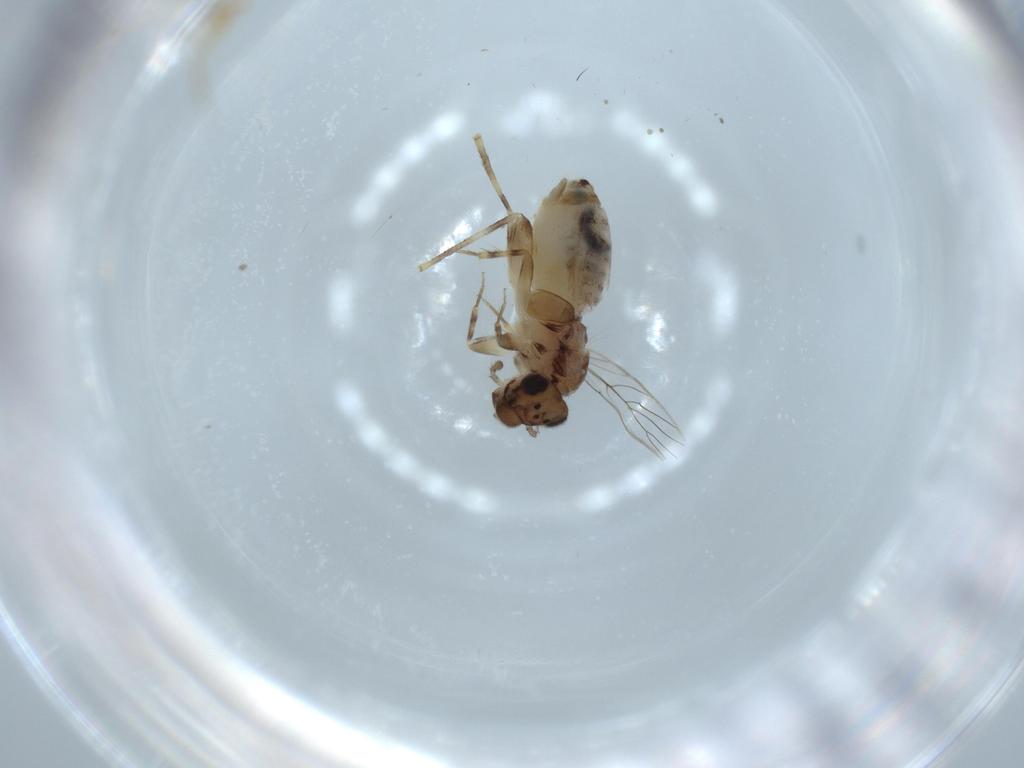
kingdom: Animalia
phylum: Arthropoda
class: Insecta
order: Psocodea
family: Lepidopsocidae
